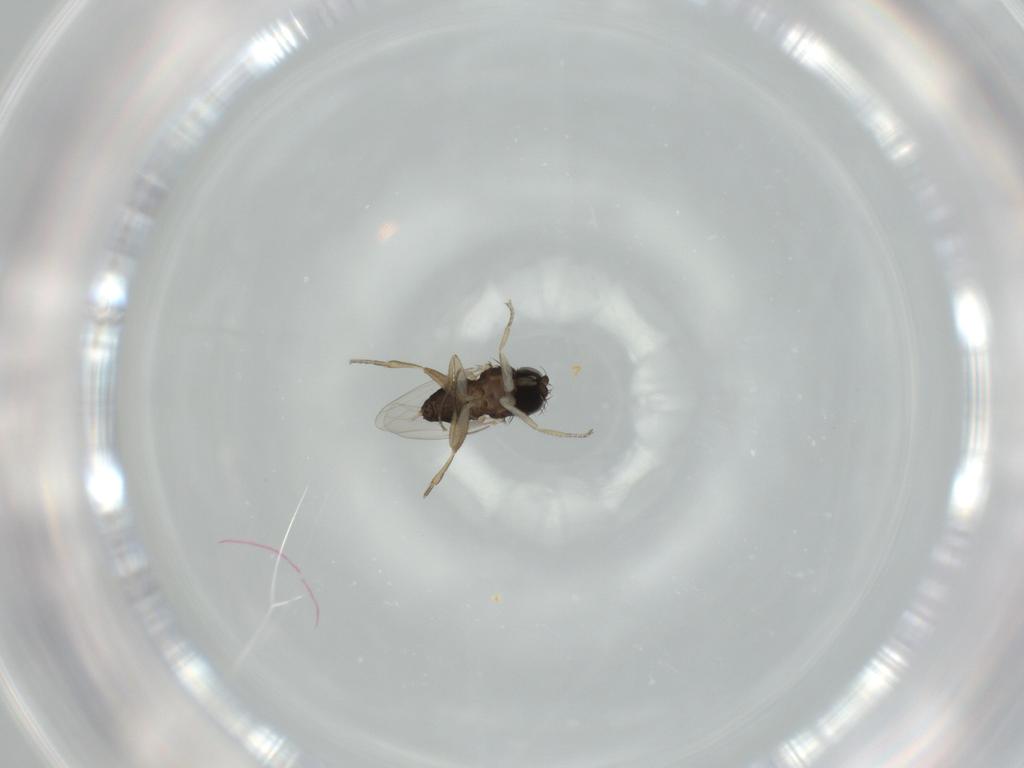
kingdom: Animalia
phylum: Arthropoda
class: Insecta
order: Diptera
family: Phoridae
